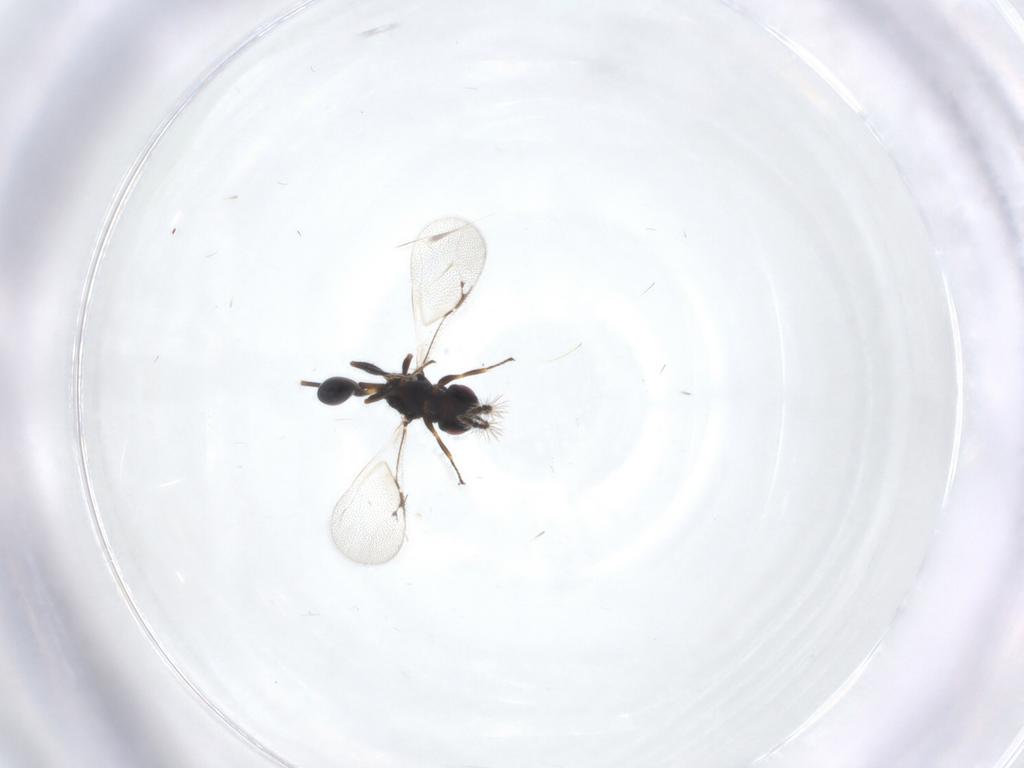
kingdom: Animalia
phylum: Arthropoda
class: Insecta
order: Hymenoptera
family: Eurytomidae
